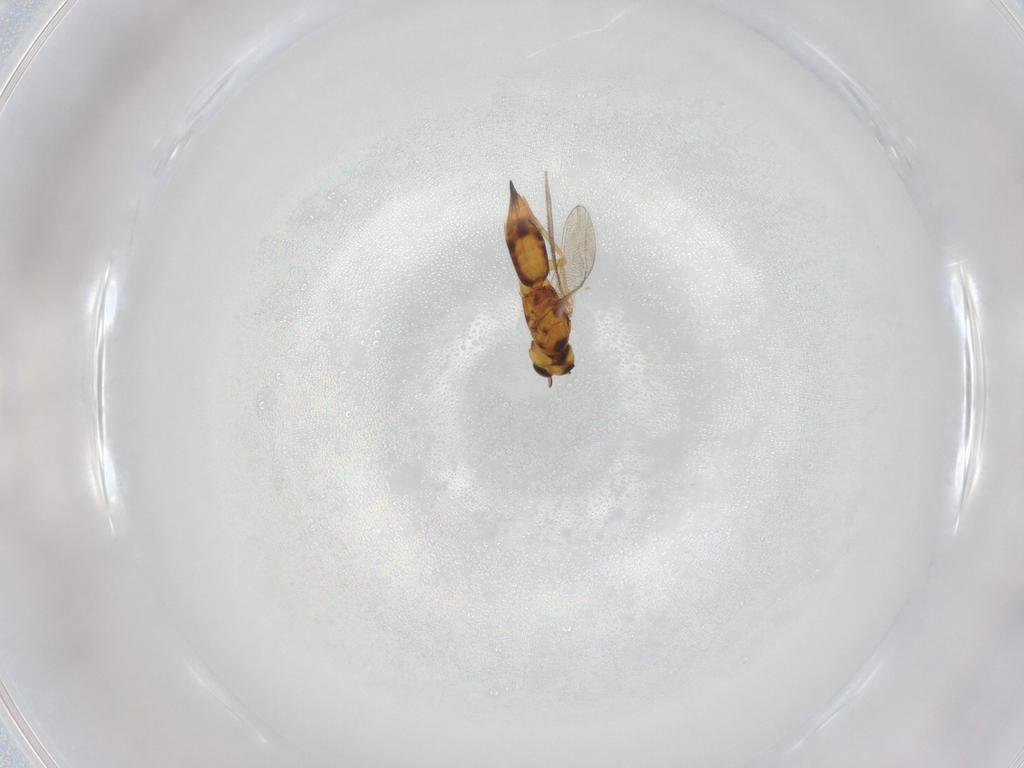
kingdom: Animalia
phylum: Arthropoda
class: Insecta
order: Hymenoptera
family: Eulophidae
